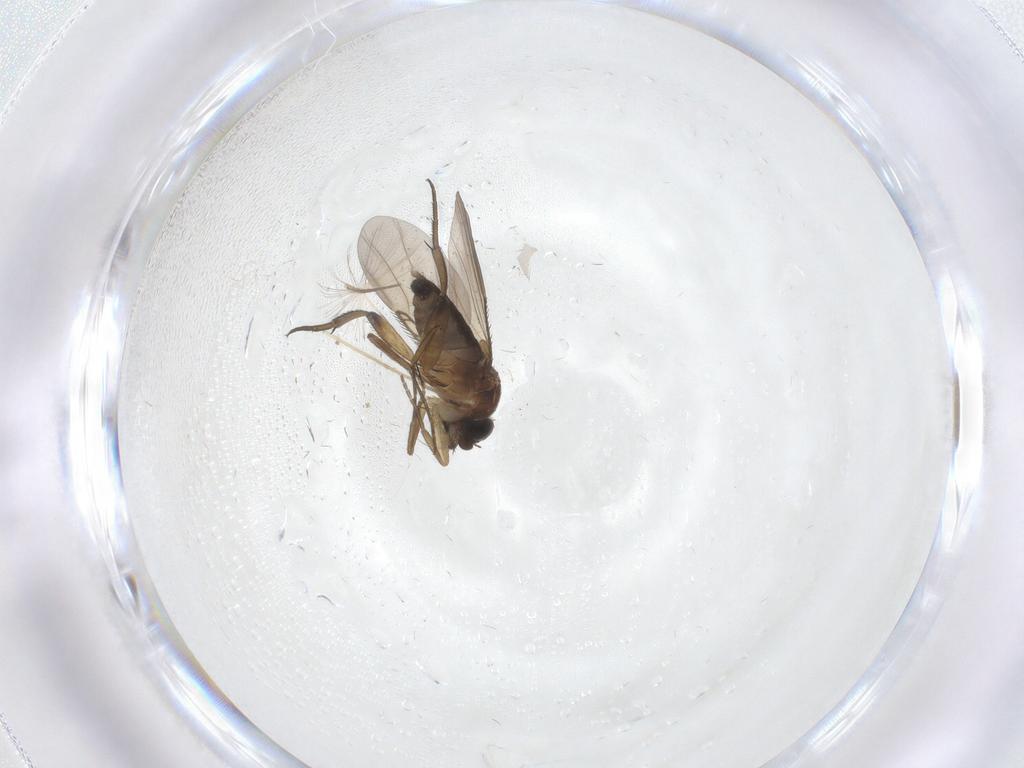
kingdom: Animalia
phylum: Arthropoda
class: Insecta
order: Diptera
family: Phoridae
